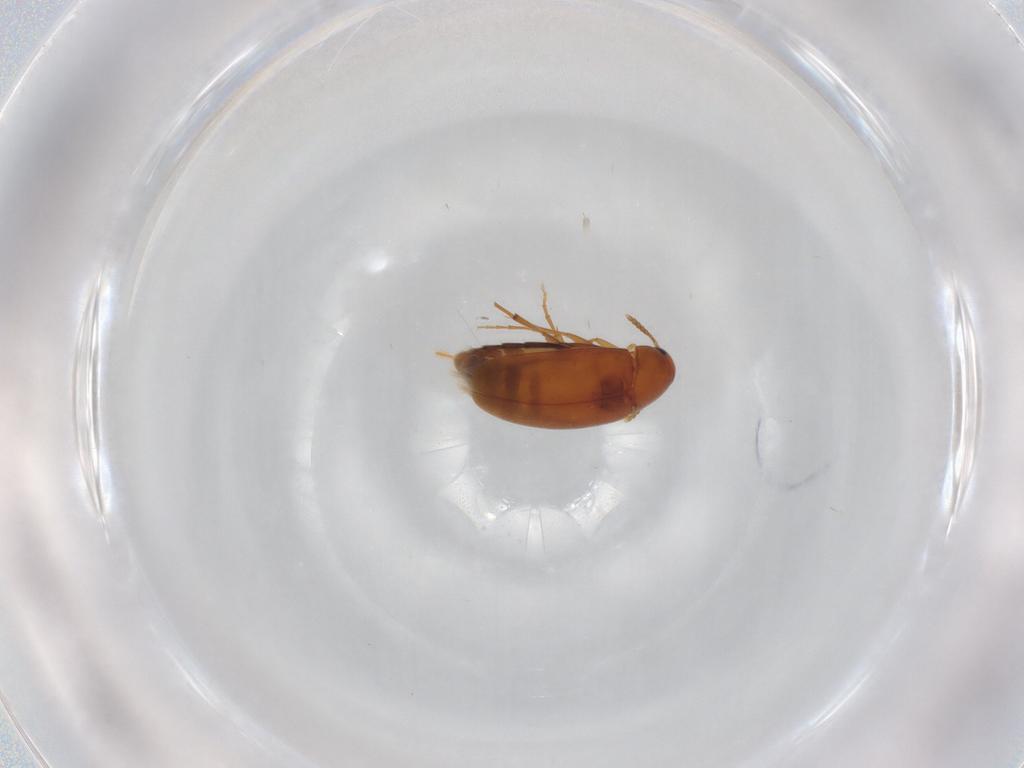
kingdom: Animalia
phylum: Arthropoda
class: Insecta
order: Coleoptera
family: Scraptiidae
